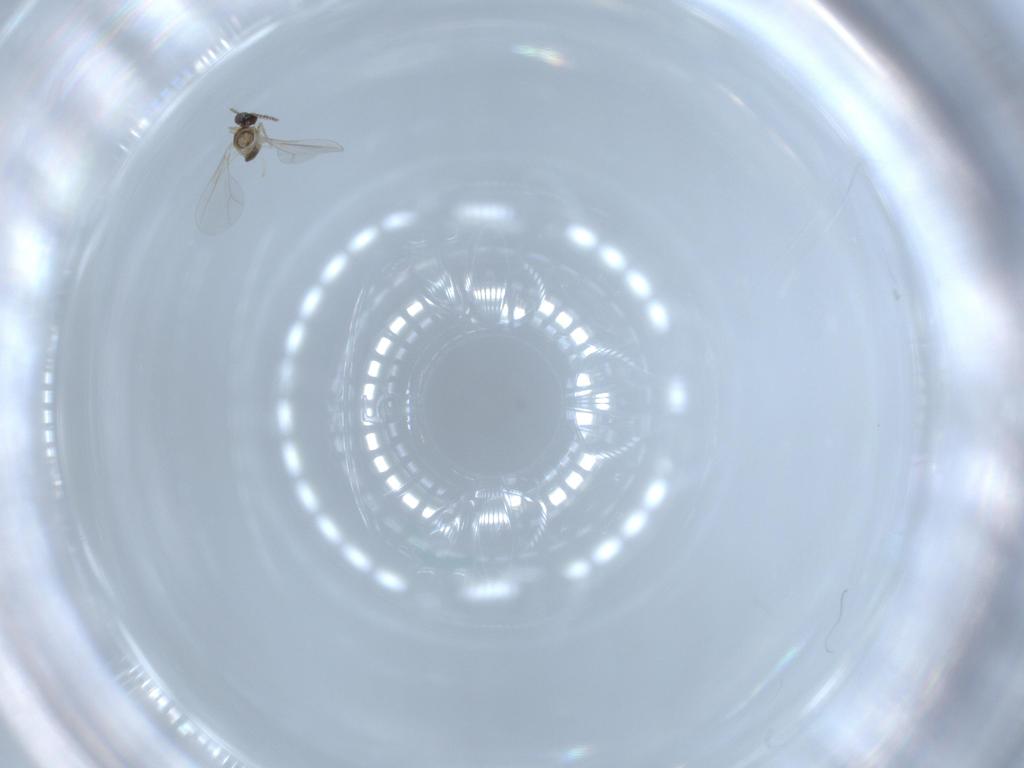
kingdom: Animalia
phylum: Arthropoda
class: Insecta
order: Diptera
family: Cecidomyiidae
